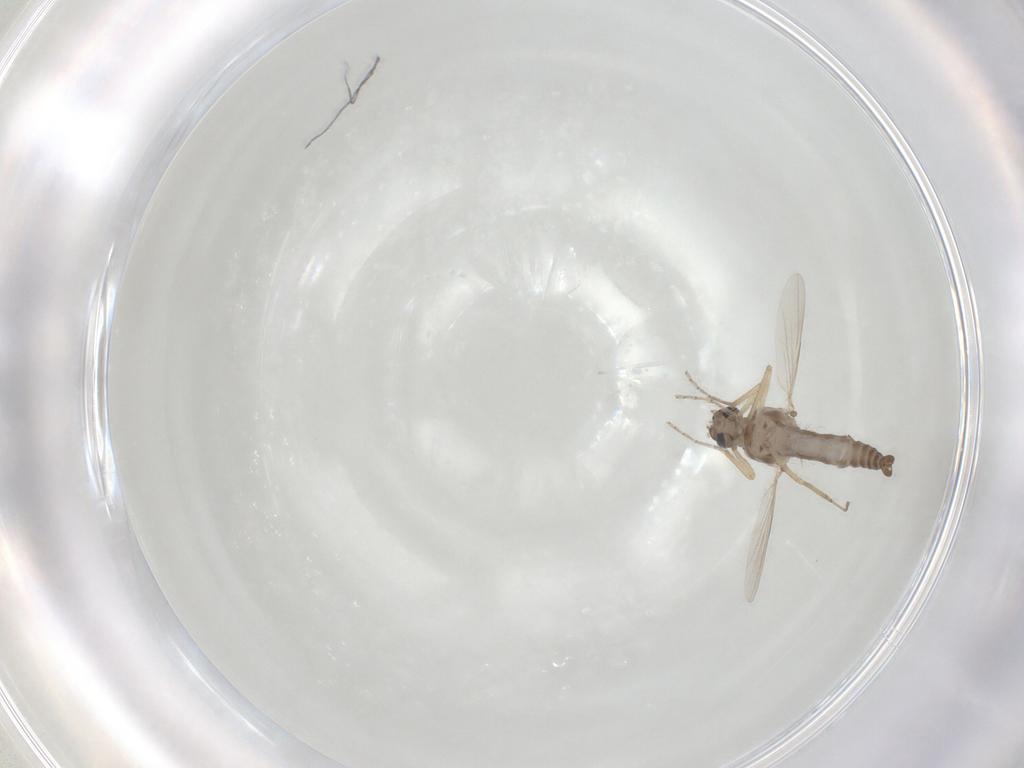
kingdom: Animalia
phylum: Arthropoda
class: Insecta
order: Diptera
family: Ceratopogonidae
